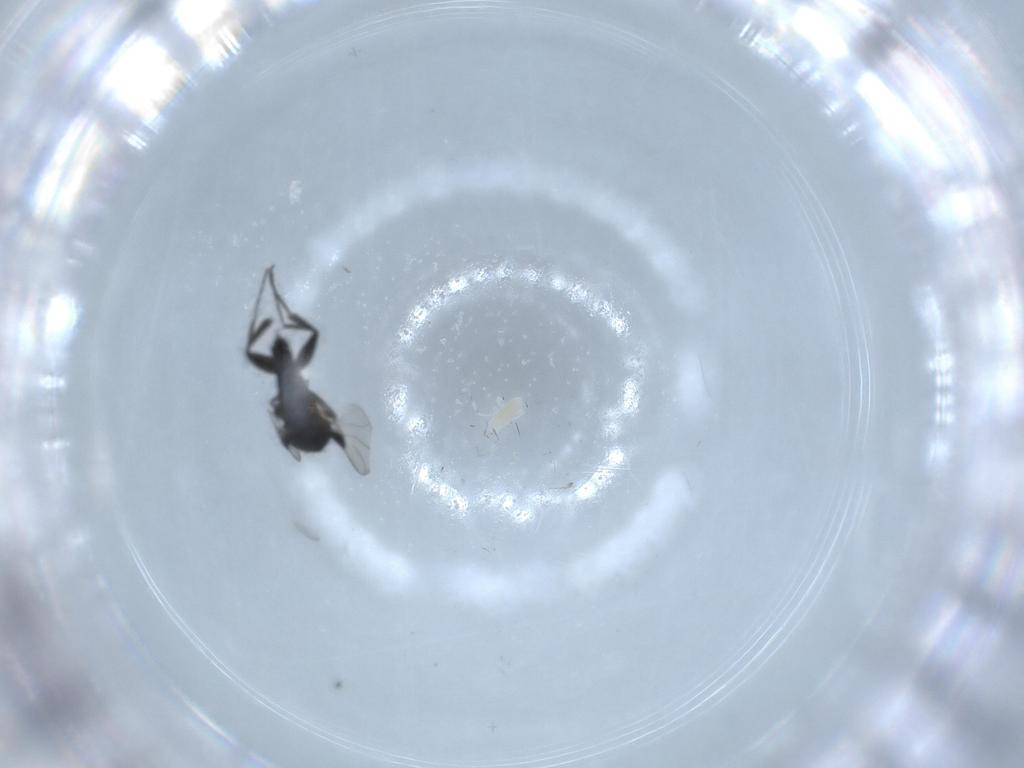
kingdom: Animalia
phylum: Arthropoda
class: Insecta
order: Diptera
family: Phoridae
